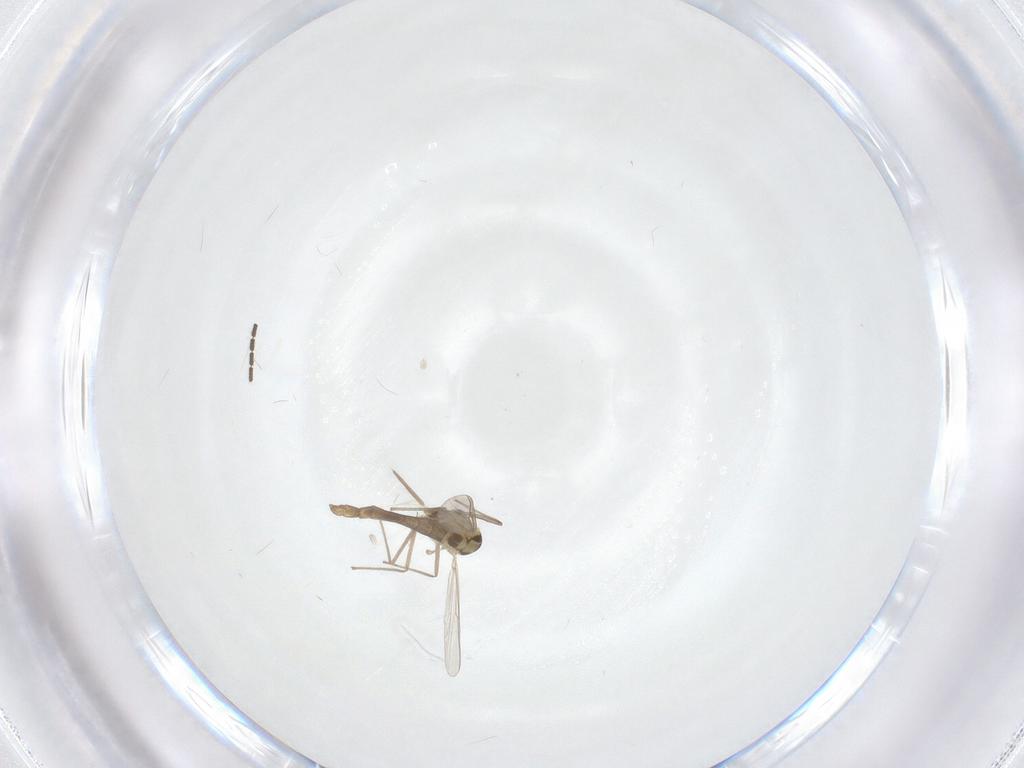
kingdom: Animalia
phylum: Arthropoda
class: Insecta
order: Diptera
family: Chironomidae
